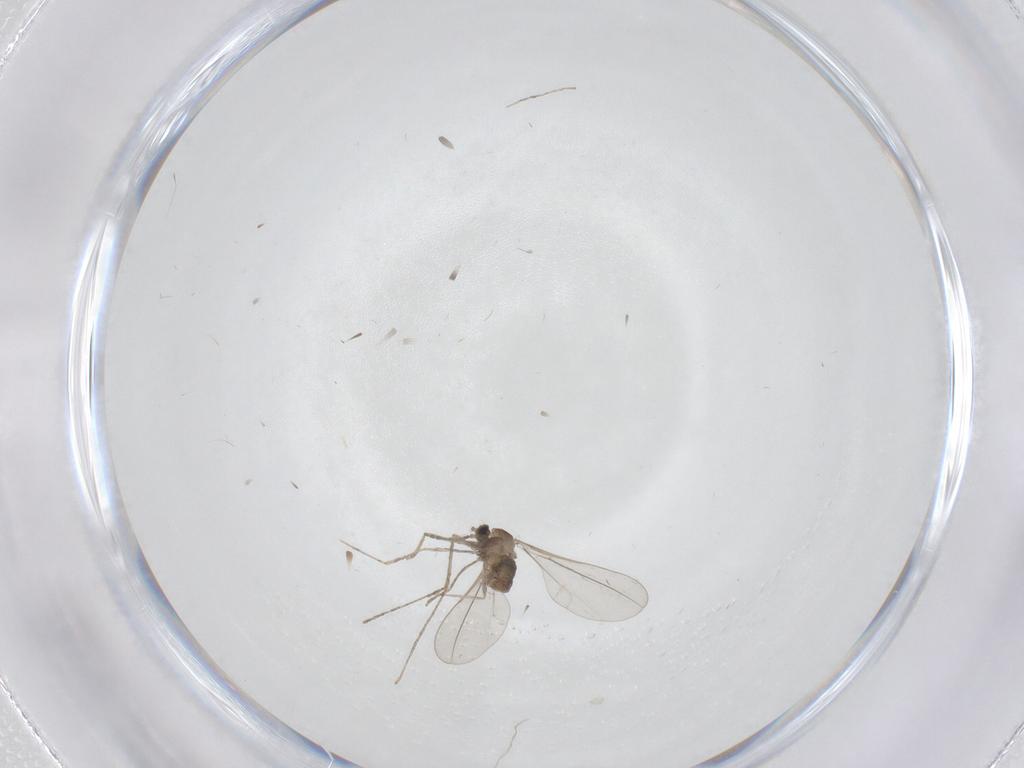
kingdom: Animalia
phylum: Arthropoda
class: Insecta
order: Diptera
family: Cecidomyiidae
